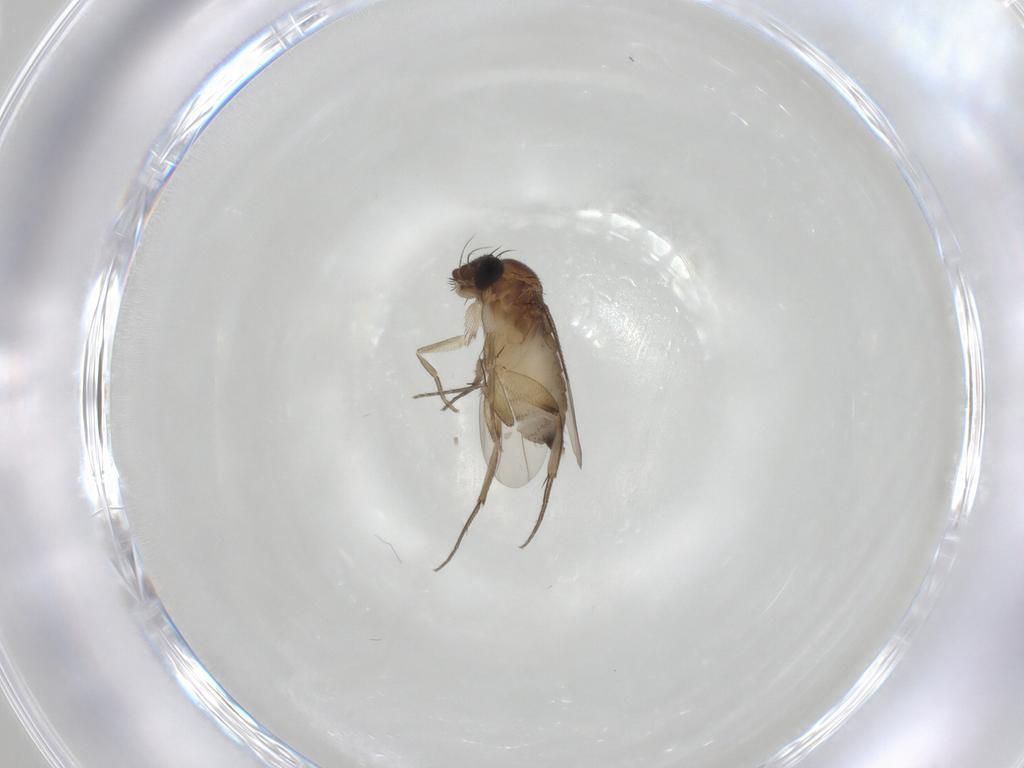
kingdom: Animalia
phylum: Arthropoda
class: Insecta
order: Diptera
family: Phoridae
